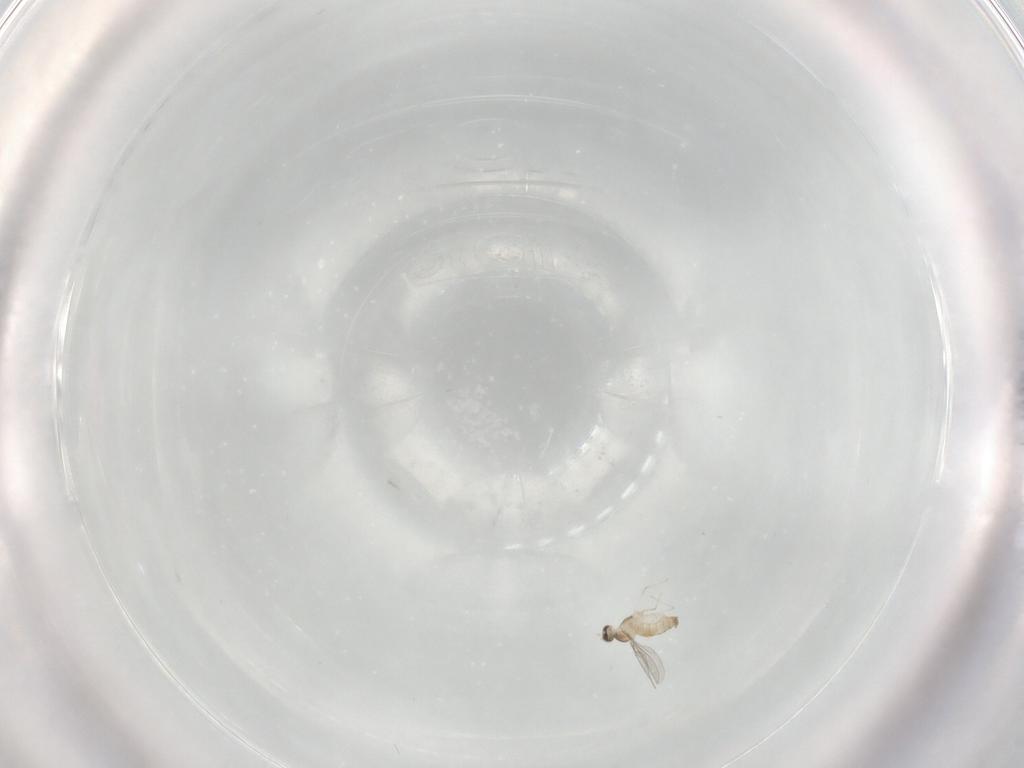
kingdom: Animalia
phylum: Arthropoda
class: Insecta
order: Diptera
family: Cecidomyiidae
